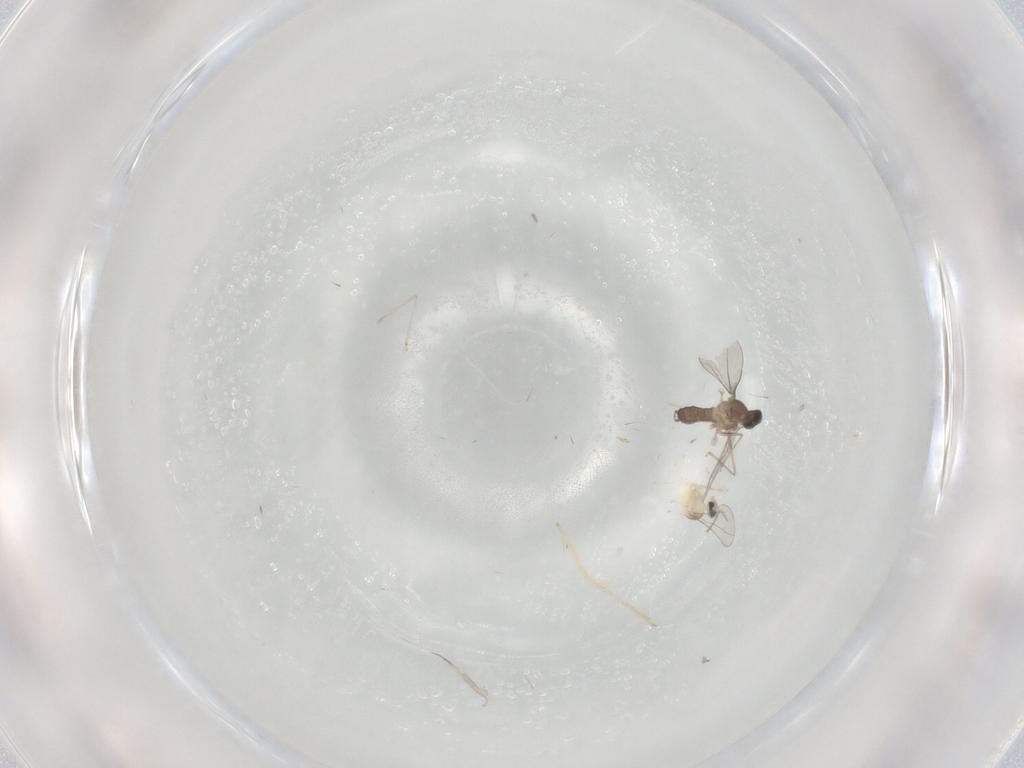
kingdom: Animalia
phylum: Arthropoda
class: Insecta
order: Diptera
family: Cecidomyiidae
